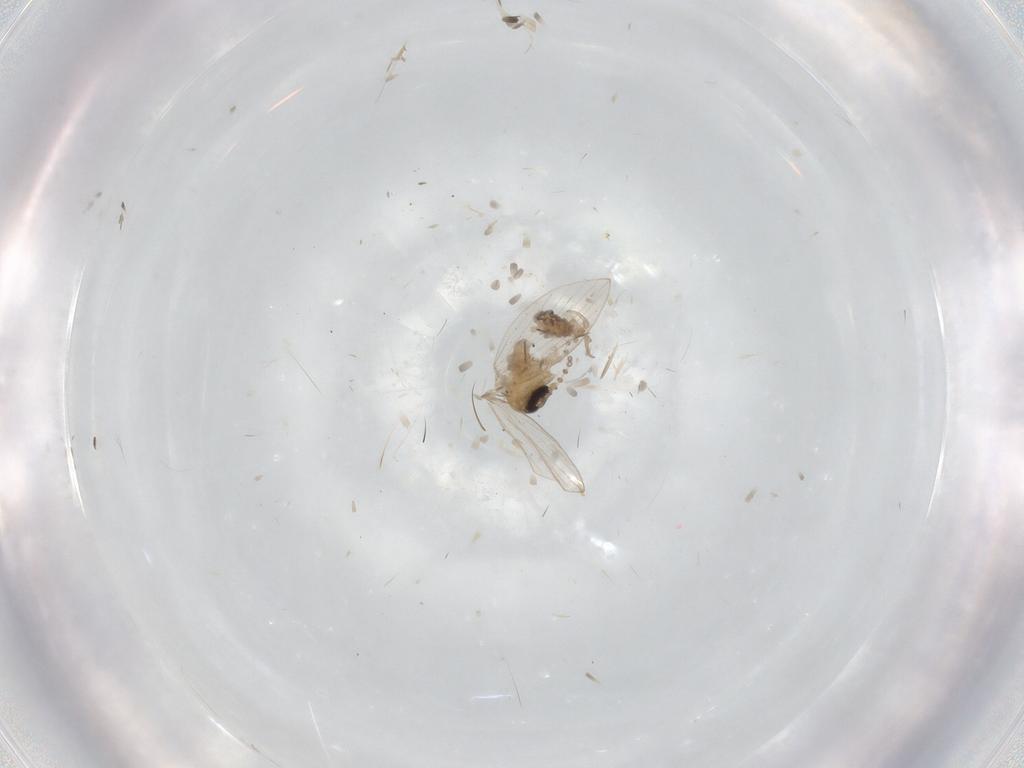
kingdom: Animalia
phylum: Arthropoda
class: Insecta
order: Diptera
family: Psychodidae
